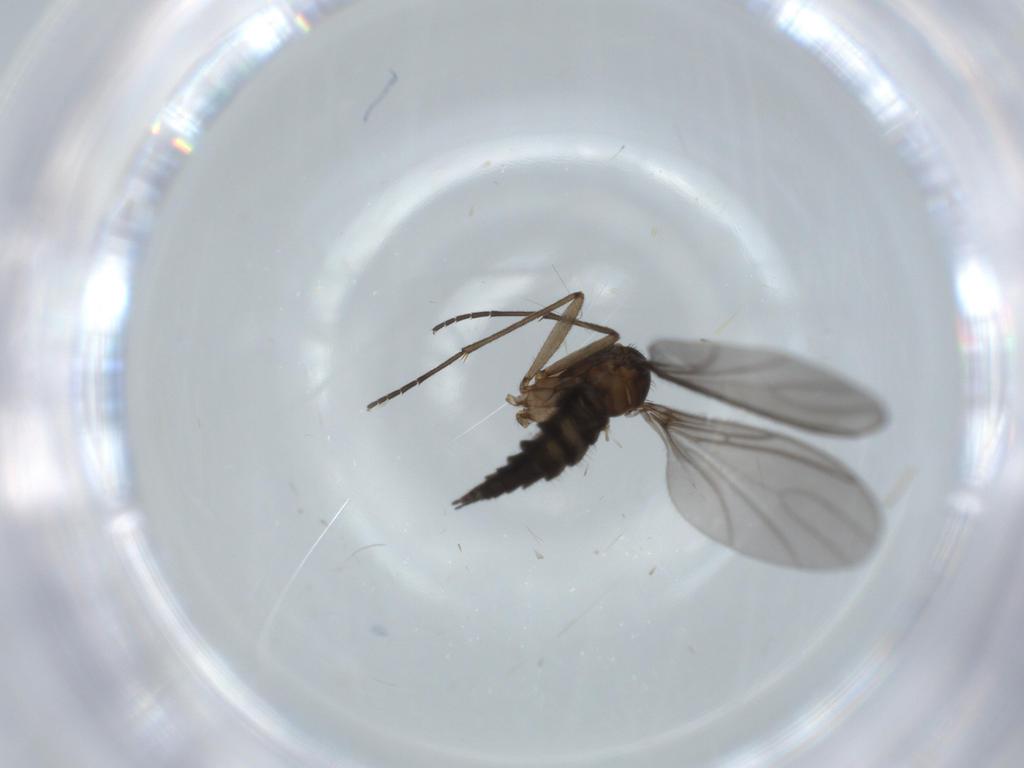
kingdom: Animalia
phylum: Arthropoda
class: Insecta
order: Diptera
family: Sciaridae
